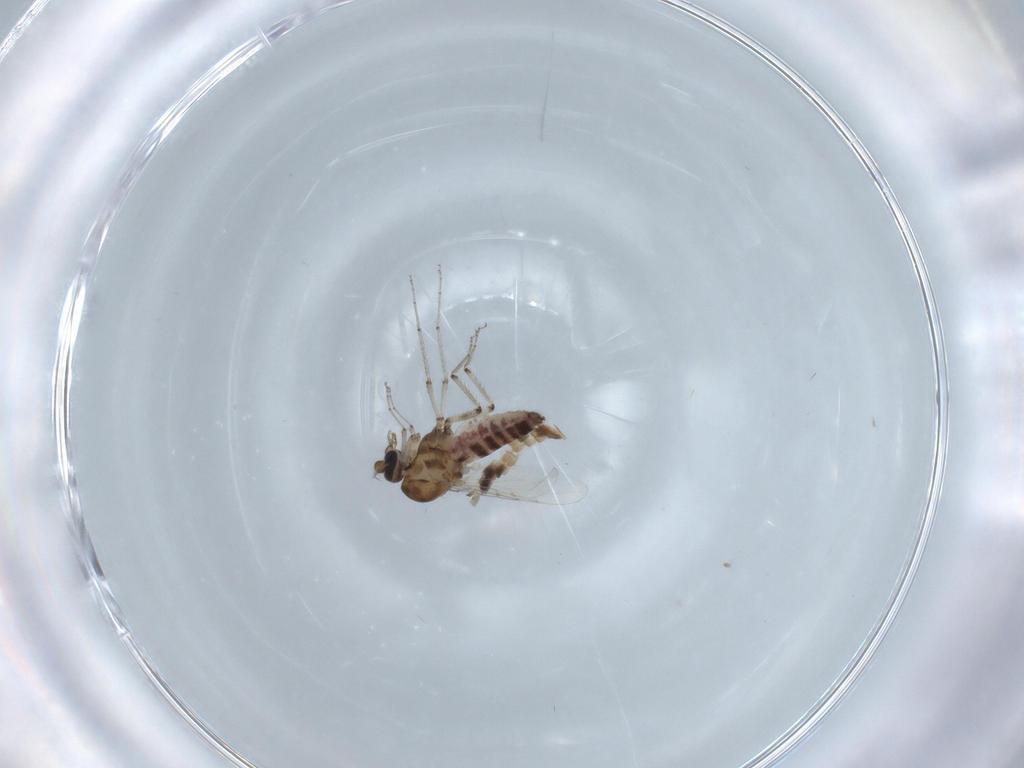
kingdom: Animalia
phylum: Arthropoda
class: Insecta
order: Diptera
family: Ceratopogonidae
